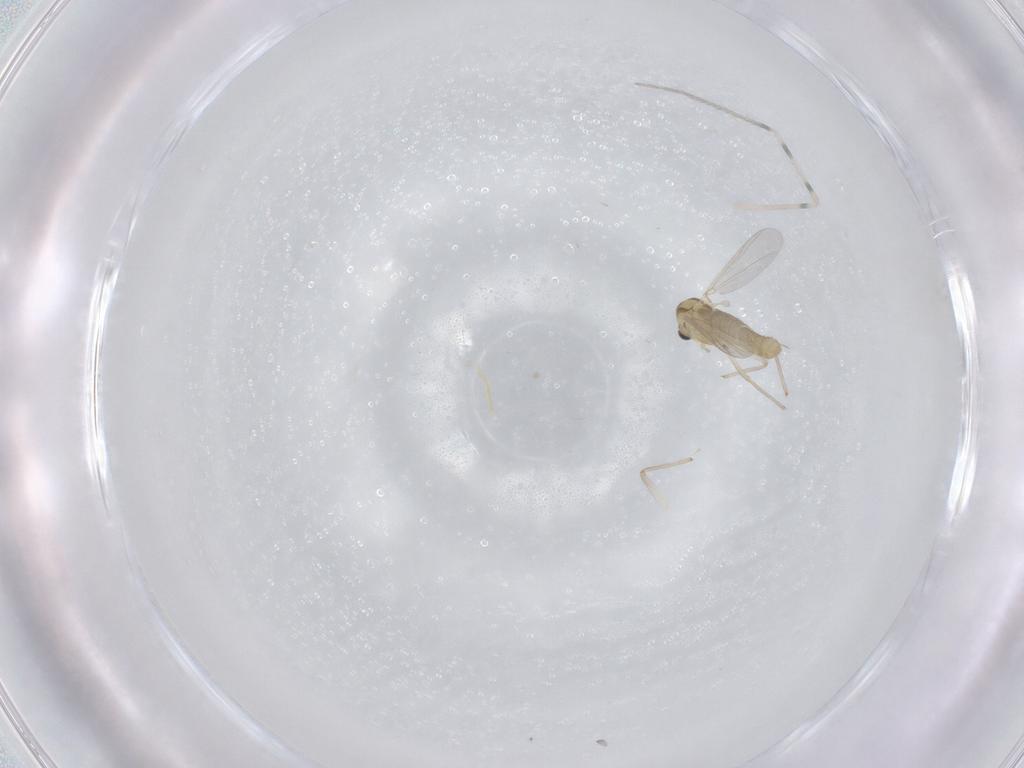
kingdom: Animalia
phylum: Arthropoda
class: Insecta
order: Diptera
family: Chironomidae
